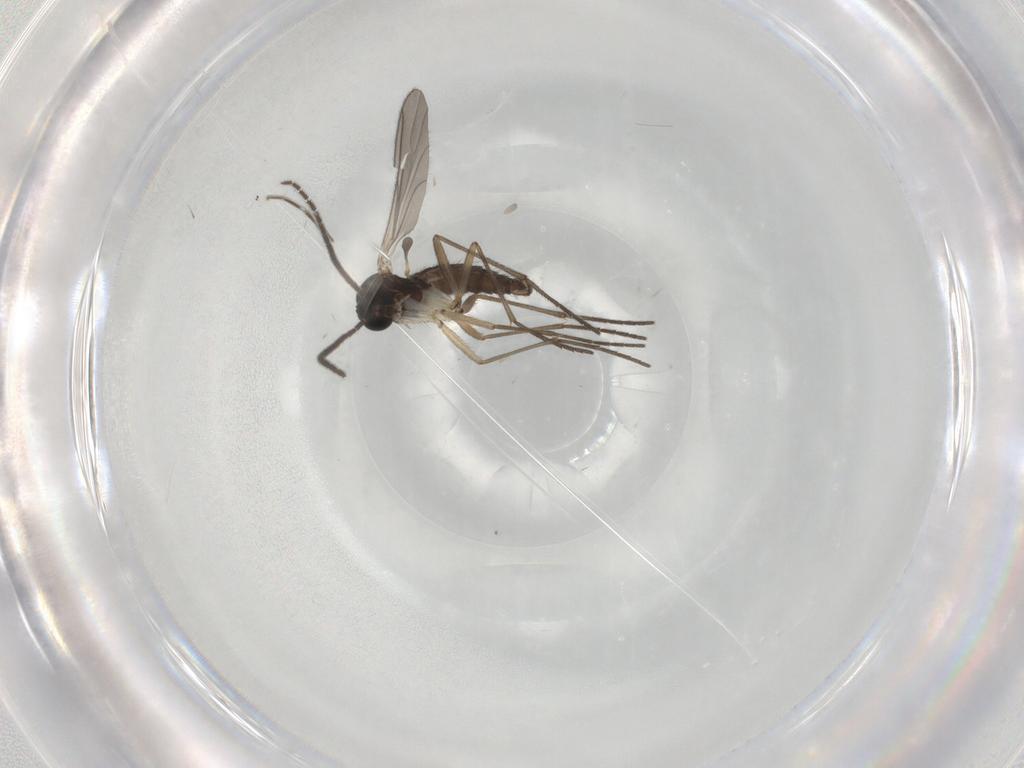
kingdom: Animalia
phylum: Arthropoda
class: Insecta
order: Diptera
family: Sciaridae
